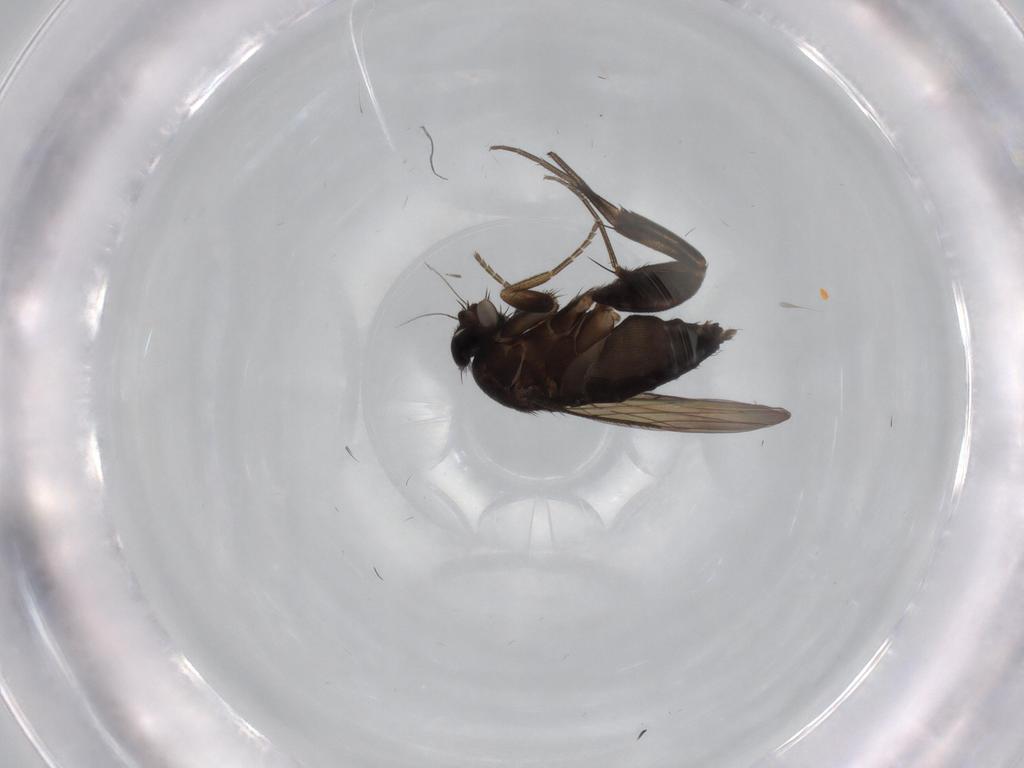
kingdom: Animalia
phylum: Arthropoda
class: Insecta
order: Diptera
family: Phoridae
